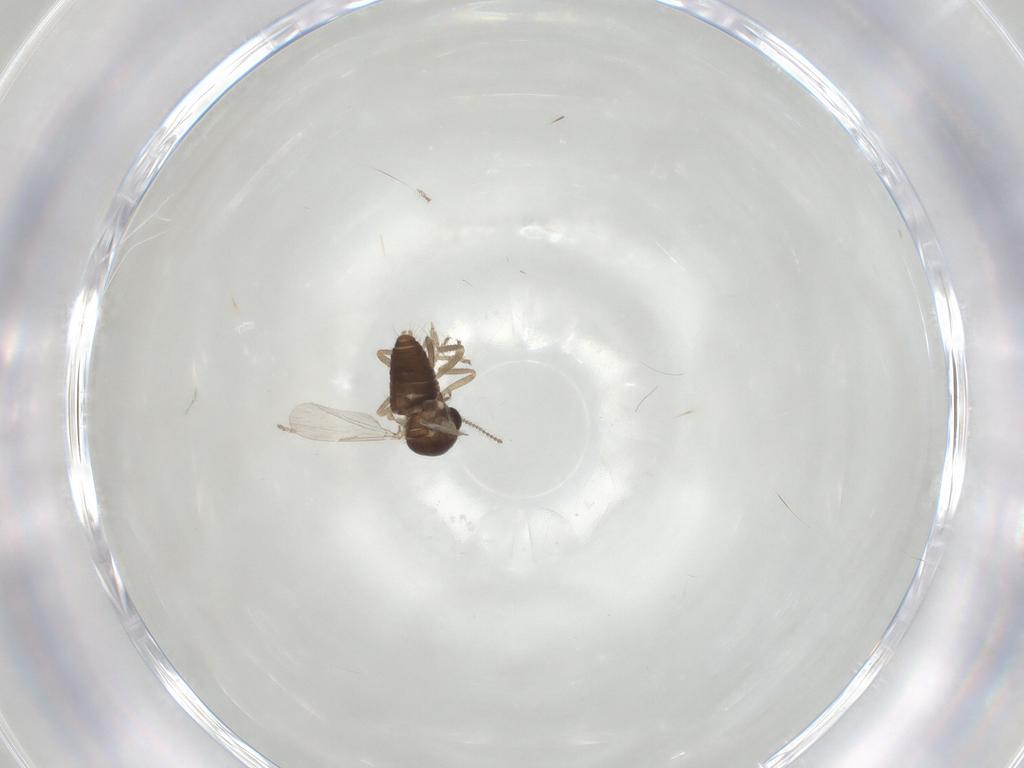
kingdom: Animalia
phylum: Arthropoda
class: Insecta
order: Diptera
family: Ceratopogonidae
